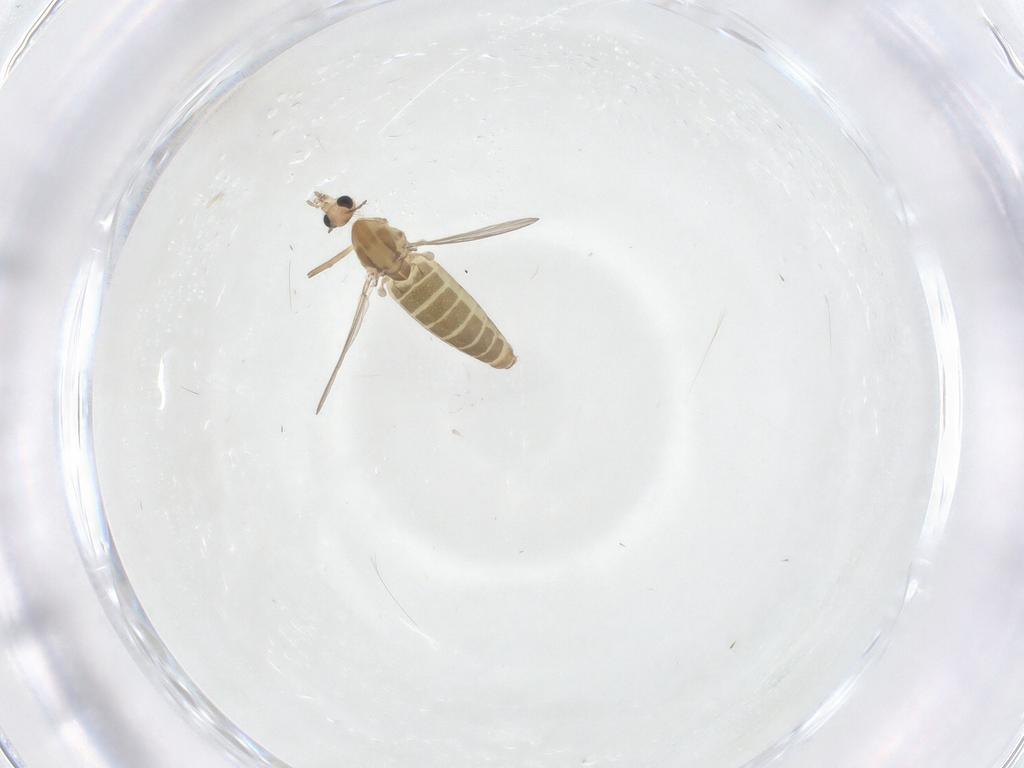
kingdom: Animalia
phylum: Arthropoda
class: Insecta
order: Diptera
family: Chironomidae
